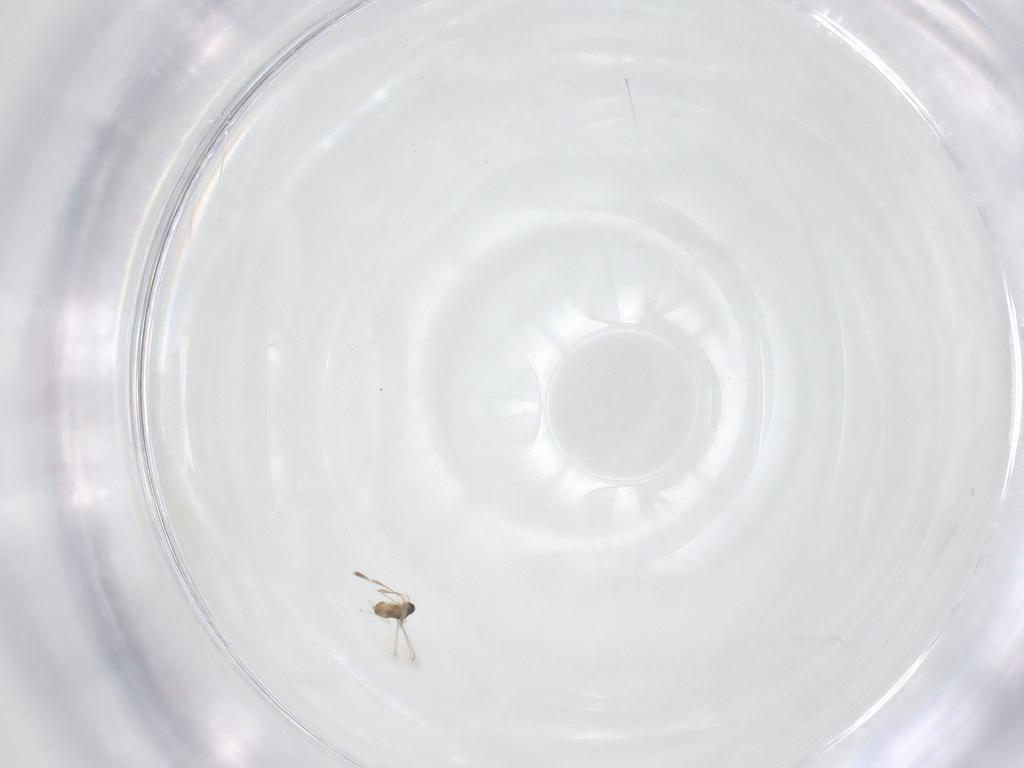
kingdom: Animalia
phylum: Arthropoda
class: Insecta
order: Hymenoptera
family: Mymaridae
